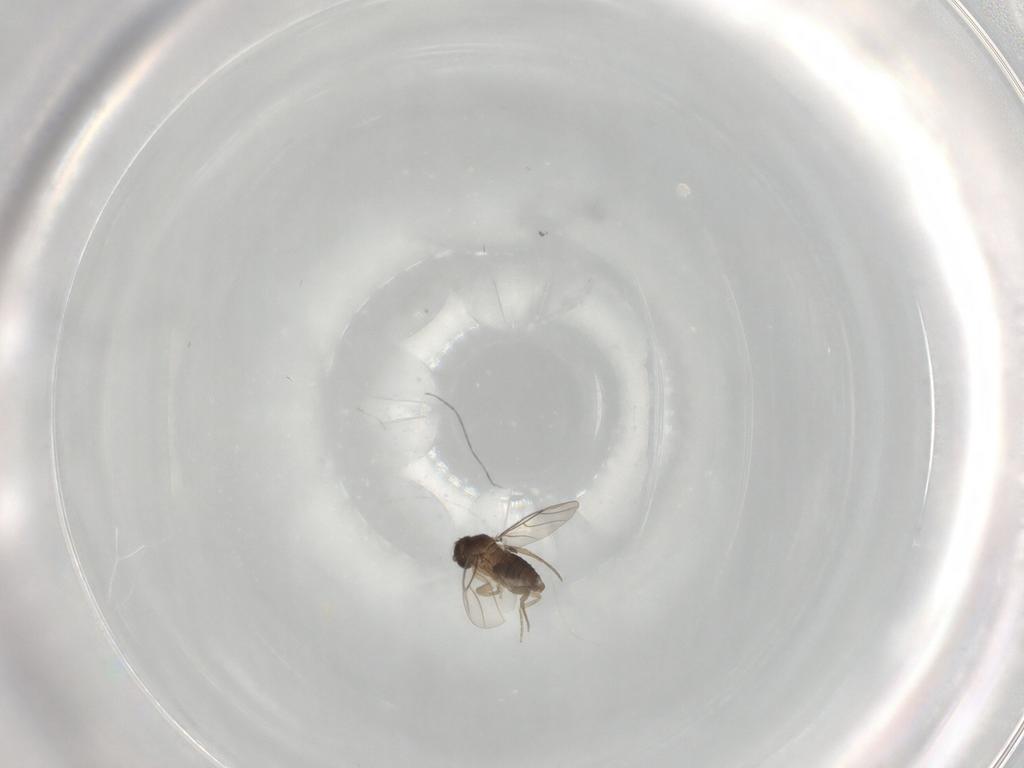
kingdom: Animalia
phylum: Arthropoda
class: Insecta
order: Diptera
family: Phoridae
